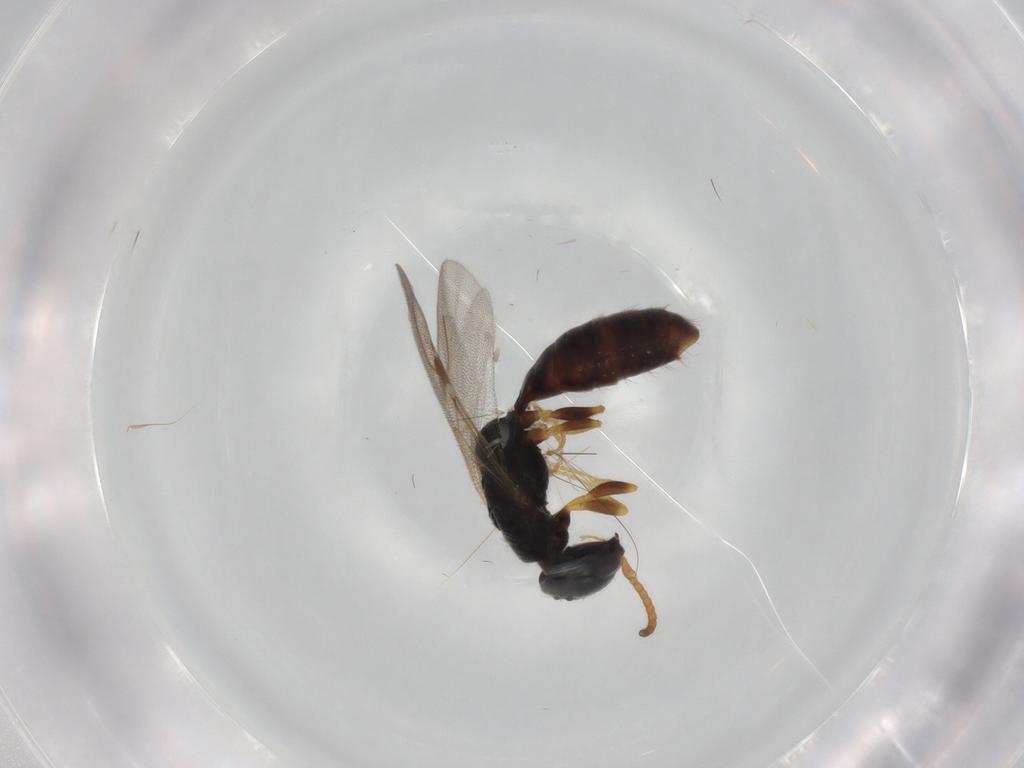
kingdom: Animalia
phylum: Arthropoda
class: Insecta
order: Hymenoptera
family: Bethylidae
